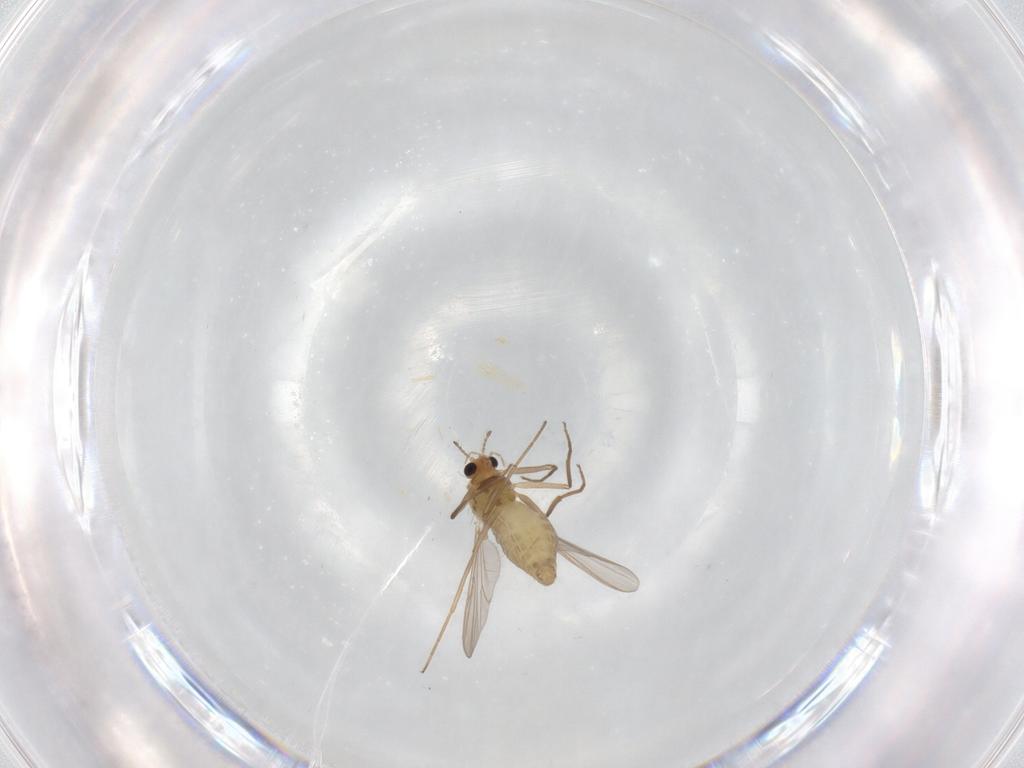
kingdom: Animalia
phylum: Arthropoda
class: Insecta
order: Diptera
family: Chironomidae
